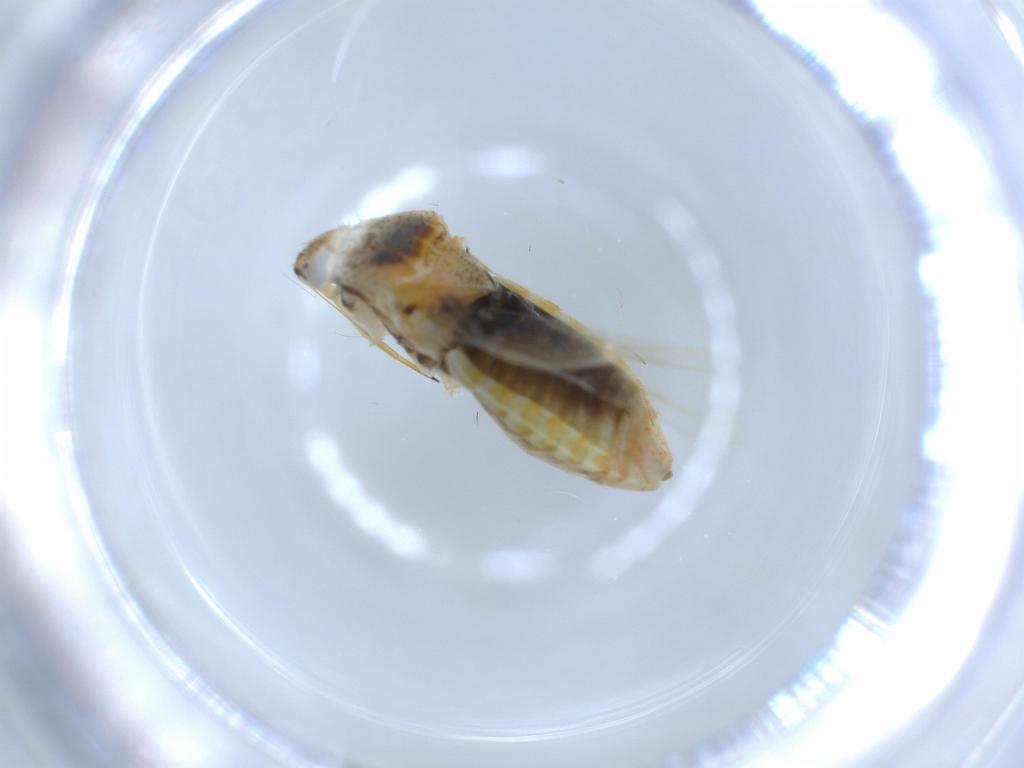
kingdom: Animalia
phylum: Arthropoda
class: Insecta
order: Hemiptera
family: Miridae
